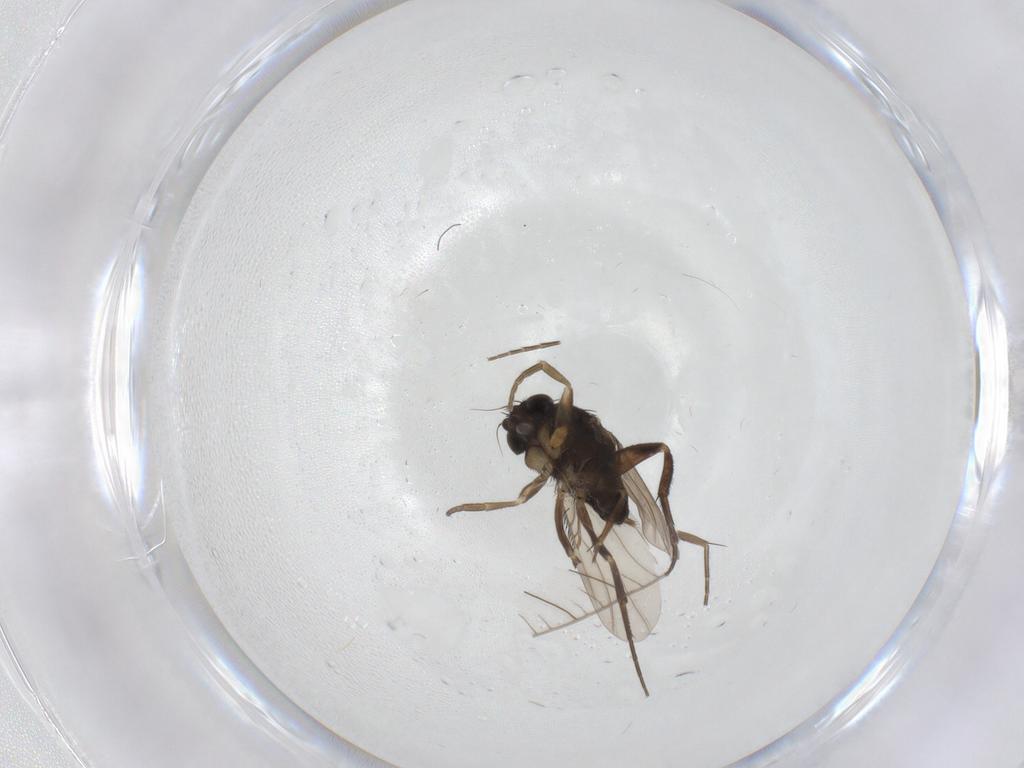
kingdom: Animalia
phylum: Arthropoda
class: Insecta
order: Diptera
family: Phoridae
